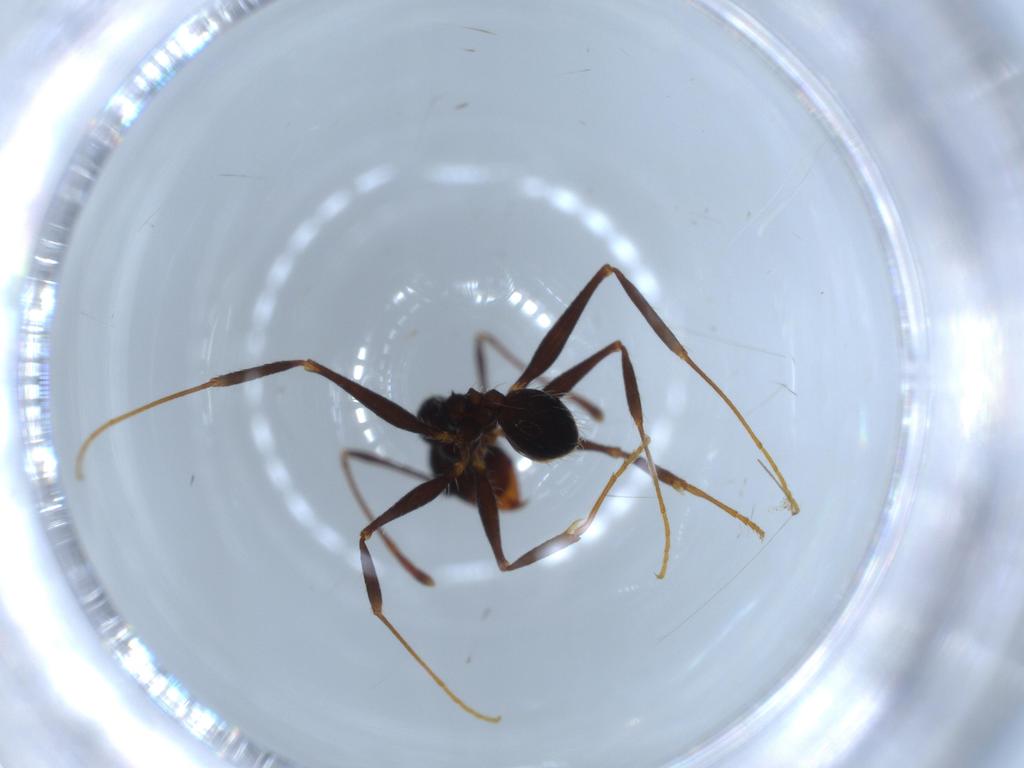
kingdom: Animalia
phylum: Arthropoda
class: Insecta
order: Hymenoptera
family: Formicidae
